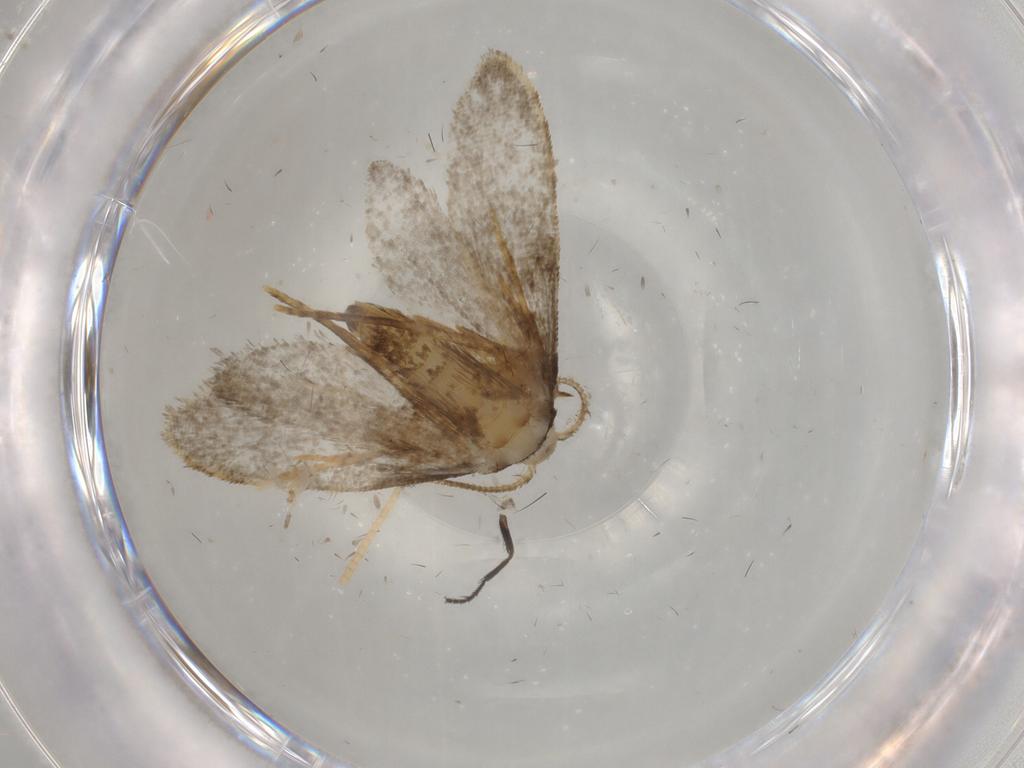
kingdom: Animalia
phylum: Arthropoda
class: Insecta
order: Lepidoptera
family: Psychidae
